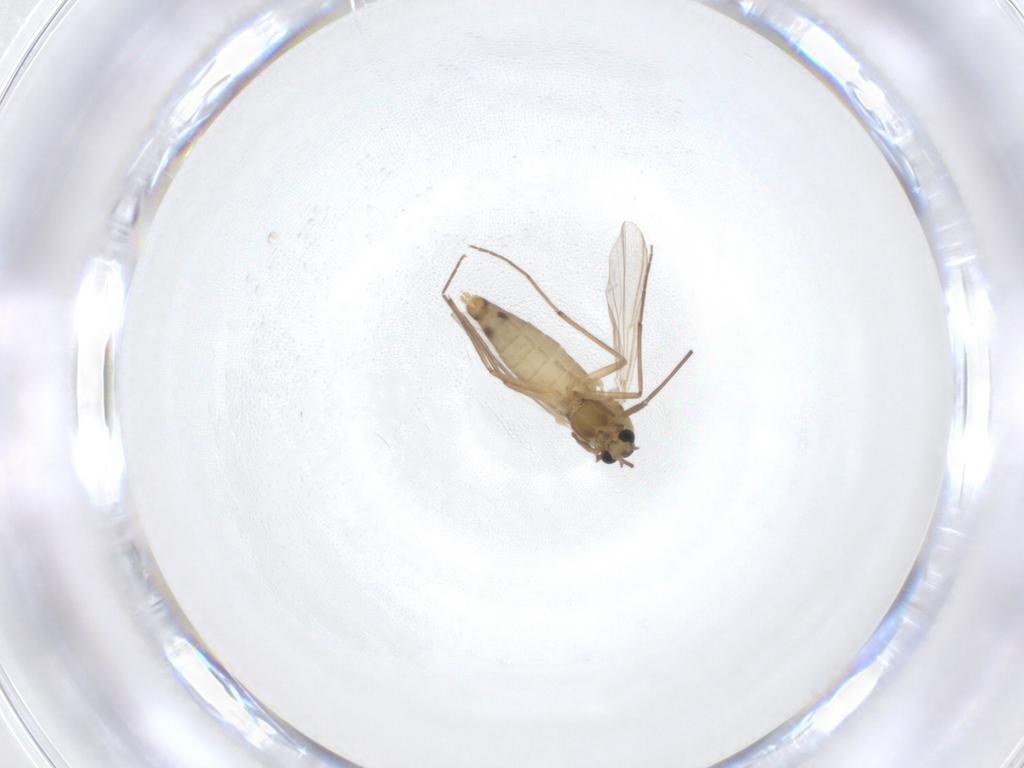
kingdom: Animalia
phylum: Arthropoda
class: Insecta
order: Diptera
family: Chironomidae
